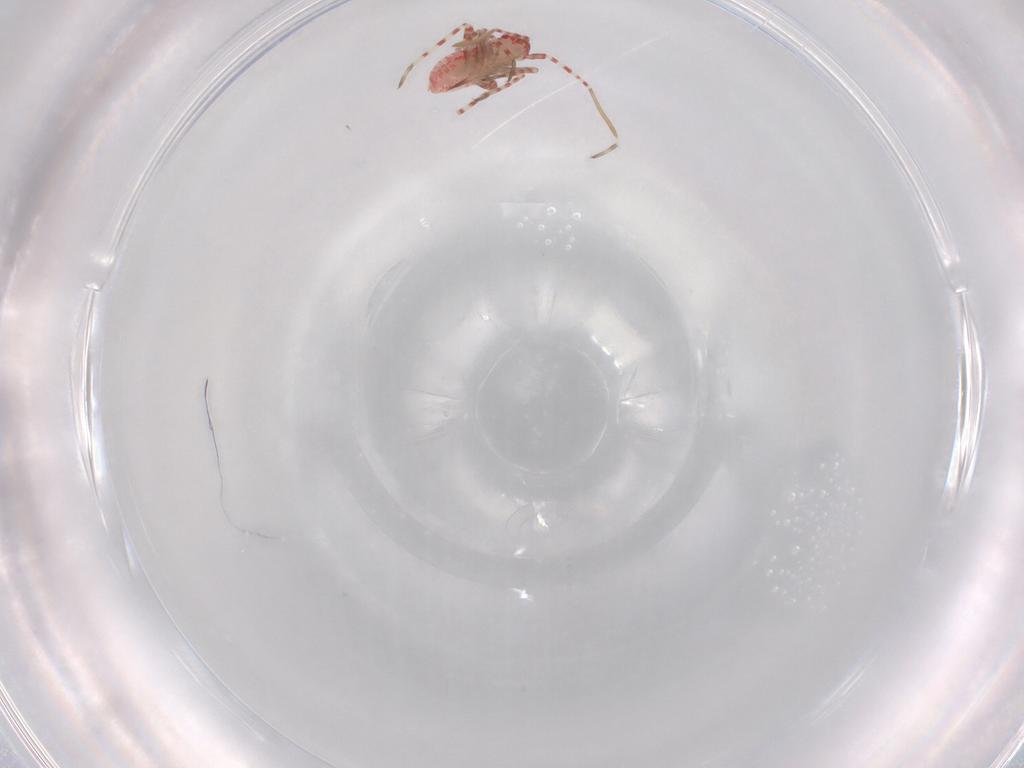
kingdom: Animalia
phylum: Arthropoda
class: Insecta
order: Hemiptera
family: Miridae
